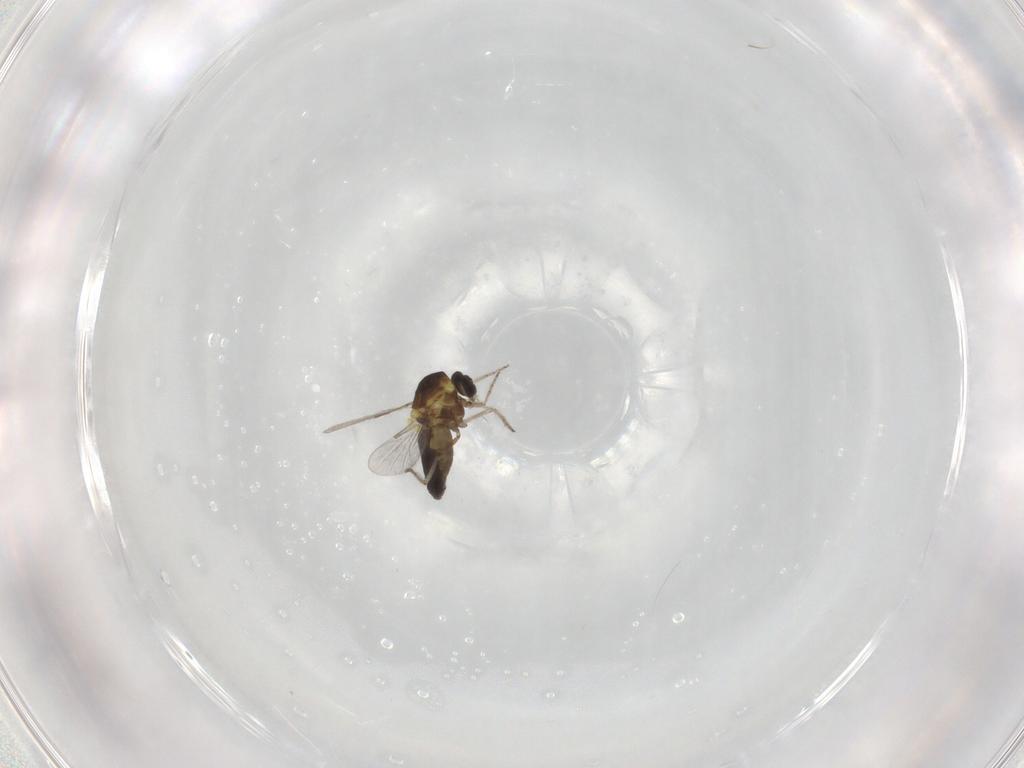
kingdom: Animalia
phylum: Arthropoda
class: Insecta
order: Diptera
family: Ceratopogonidae
